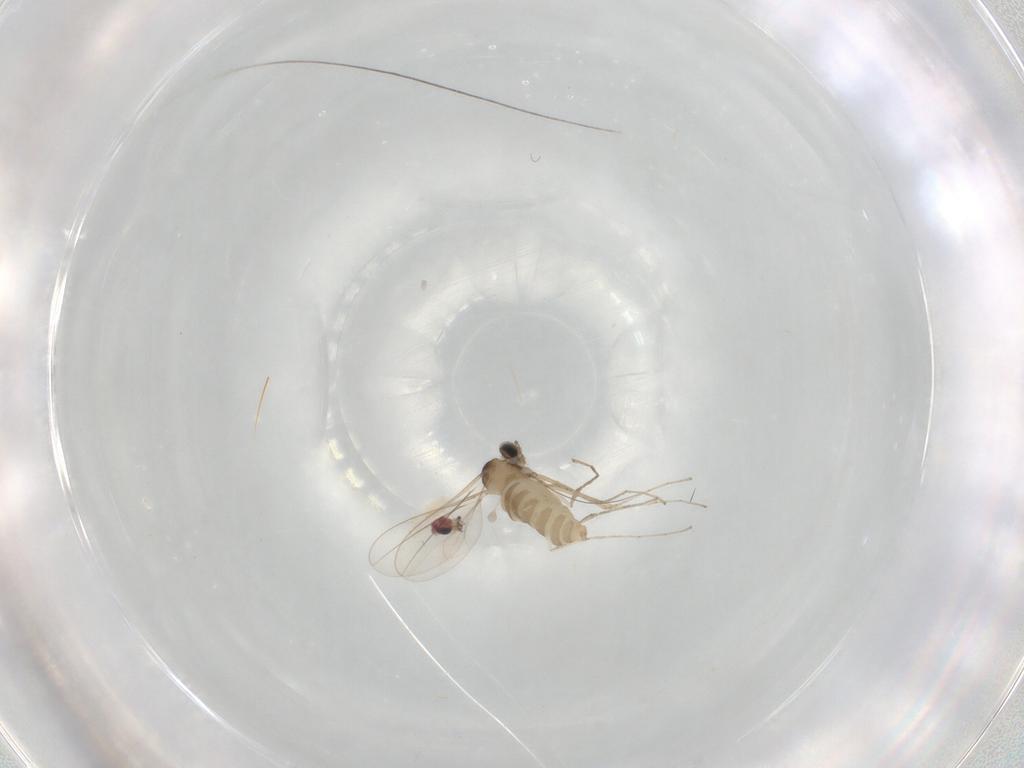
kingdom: Animalia
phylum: Arthropoda
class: Insecta
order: Diptera
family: Cecidomyiidae
